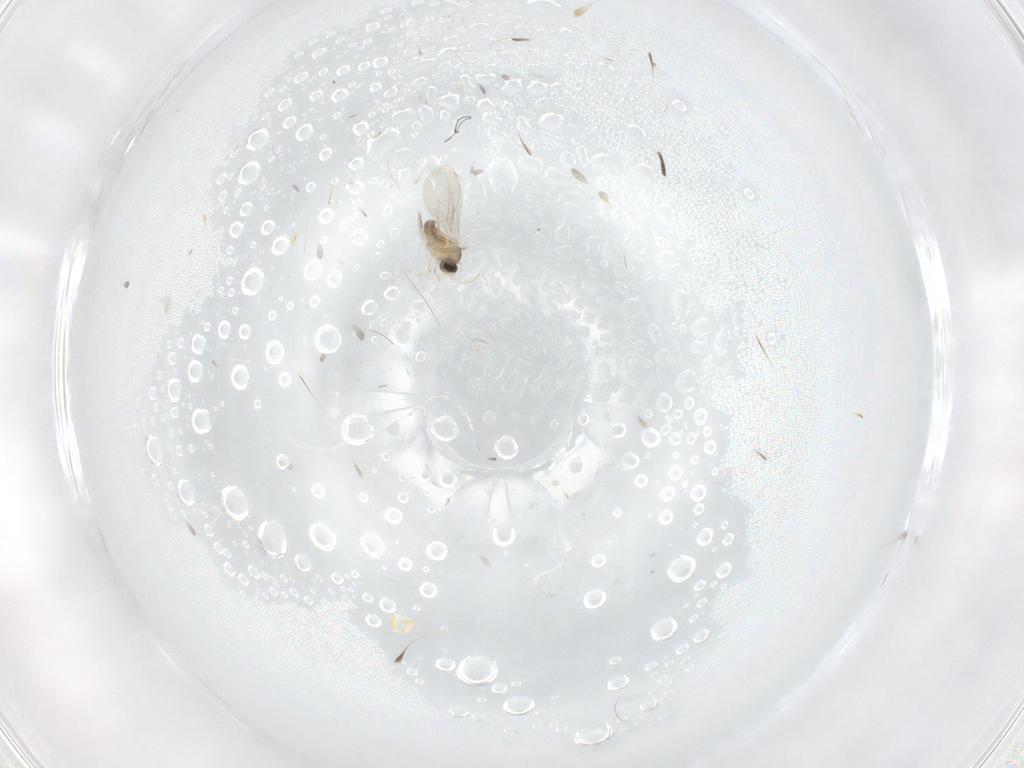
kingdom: Animalia
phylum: Arthropoda
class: Insecta
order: Diptera
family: Cecidomyiidae
